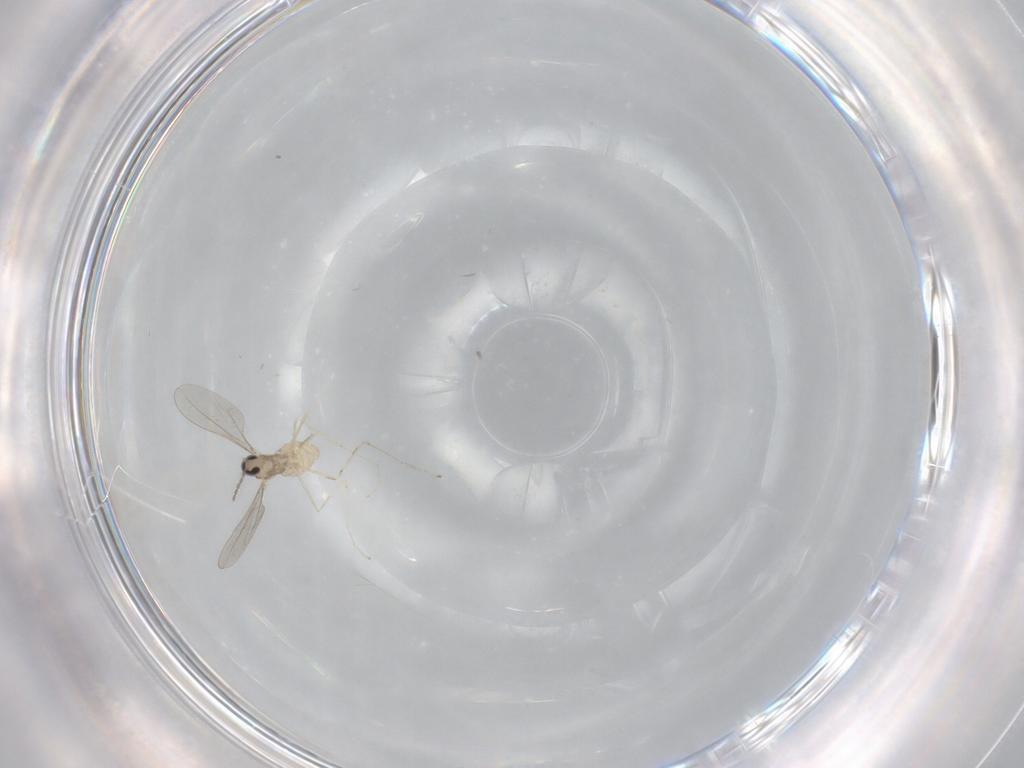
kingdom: Animalia
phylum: Arthropoda
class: Insecta
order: Diptera
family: Cecidomyiidae
